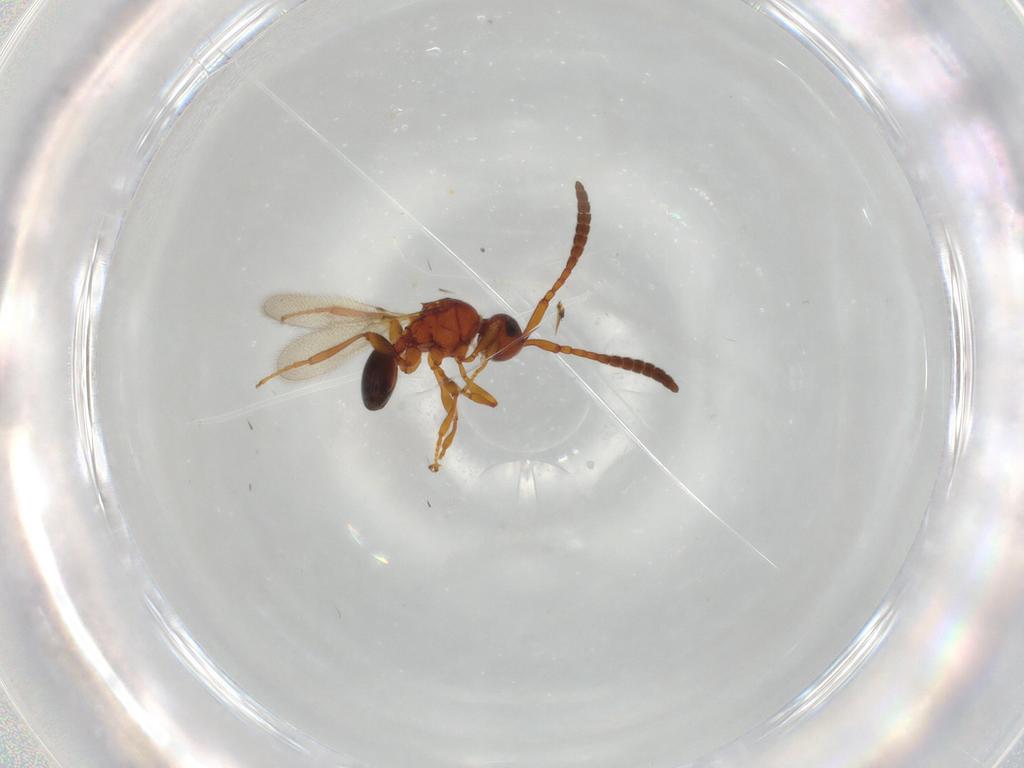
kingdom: Animalia
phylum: Arthropoda
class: Insecta
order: Hymenoptera
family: Diapriidae
